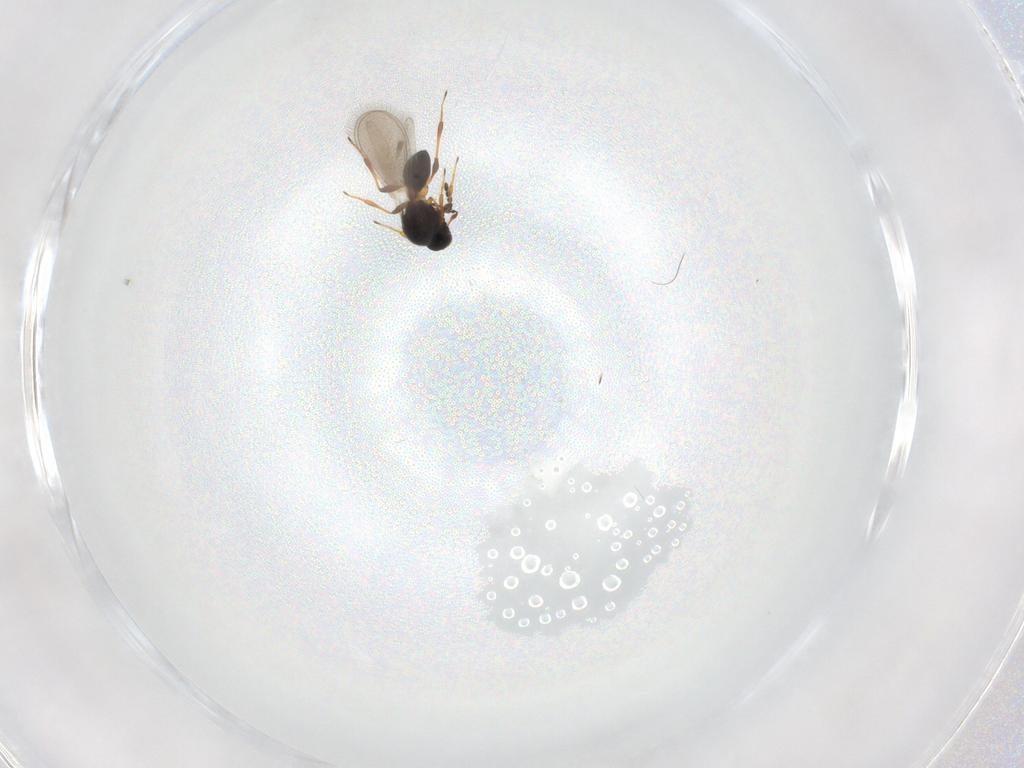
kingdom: Animalia
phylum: Arthropoda
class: Insecta
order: Hymenoptera
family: Platygastridae
